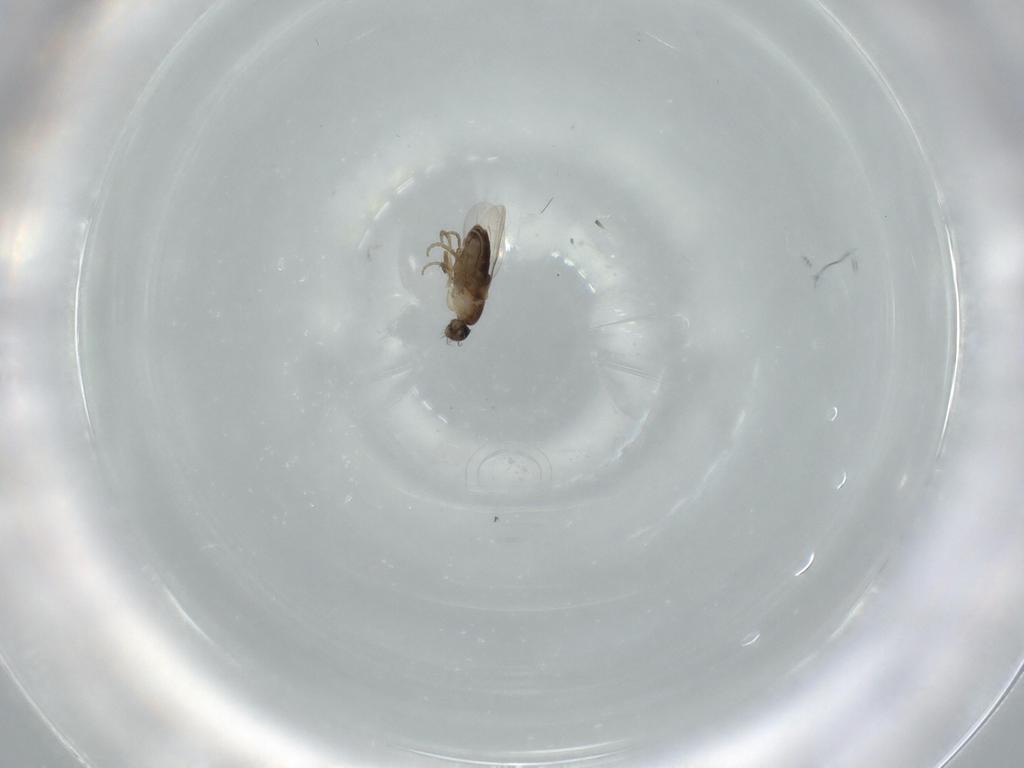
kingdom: Animalia
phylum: Arthropoda
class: Insecta
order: Diptera
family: Phoridae
